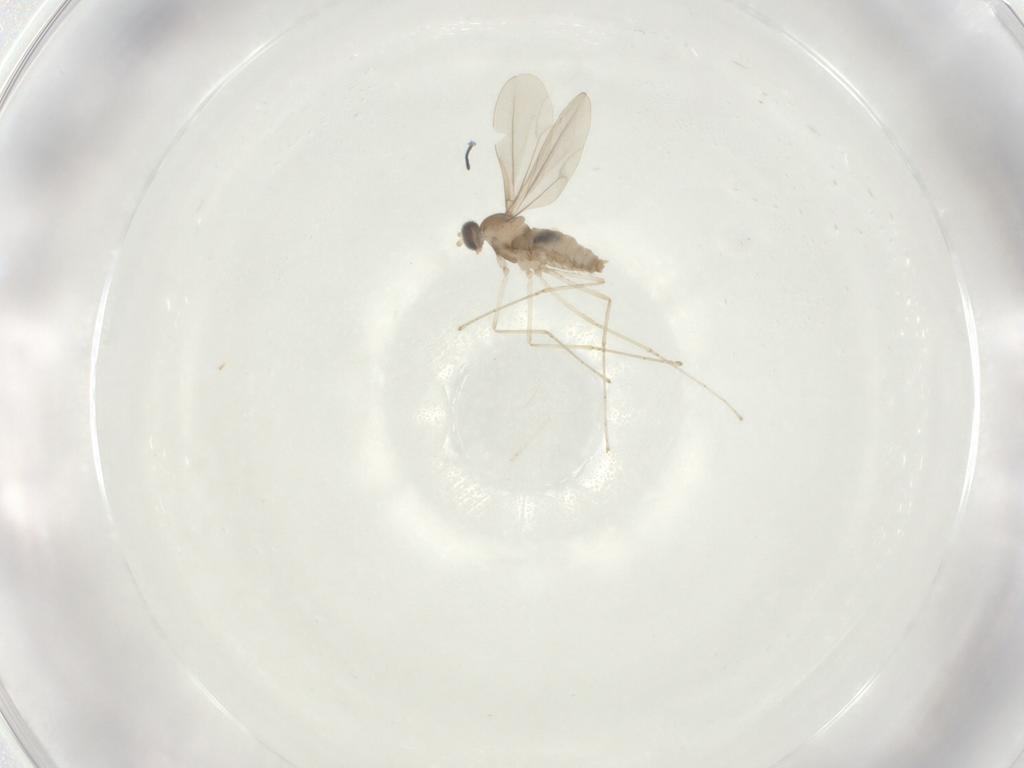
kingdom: Animalia
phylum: Arthropoda
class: Insecta
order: Diptera
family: Cecidomyiidae
